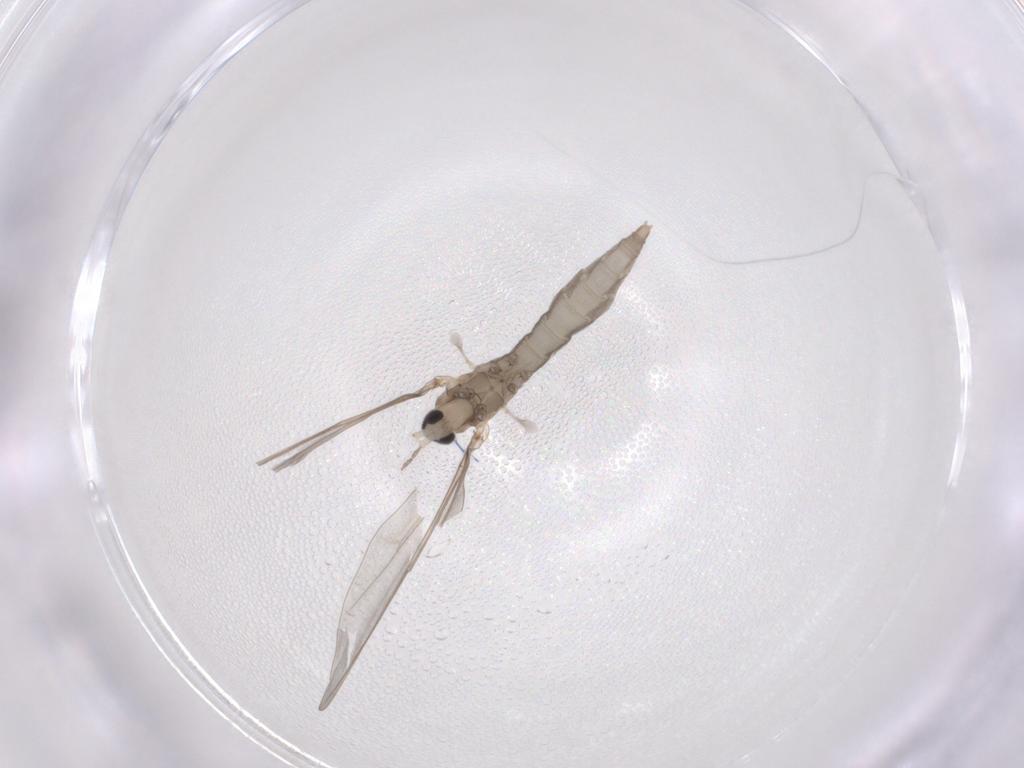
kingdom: Animalia
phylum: Arthropoda
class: Insecta
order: Diptera
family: Cecidomyiidae
